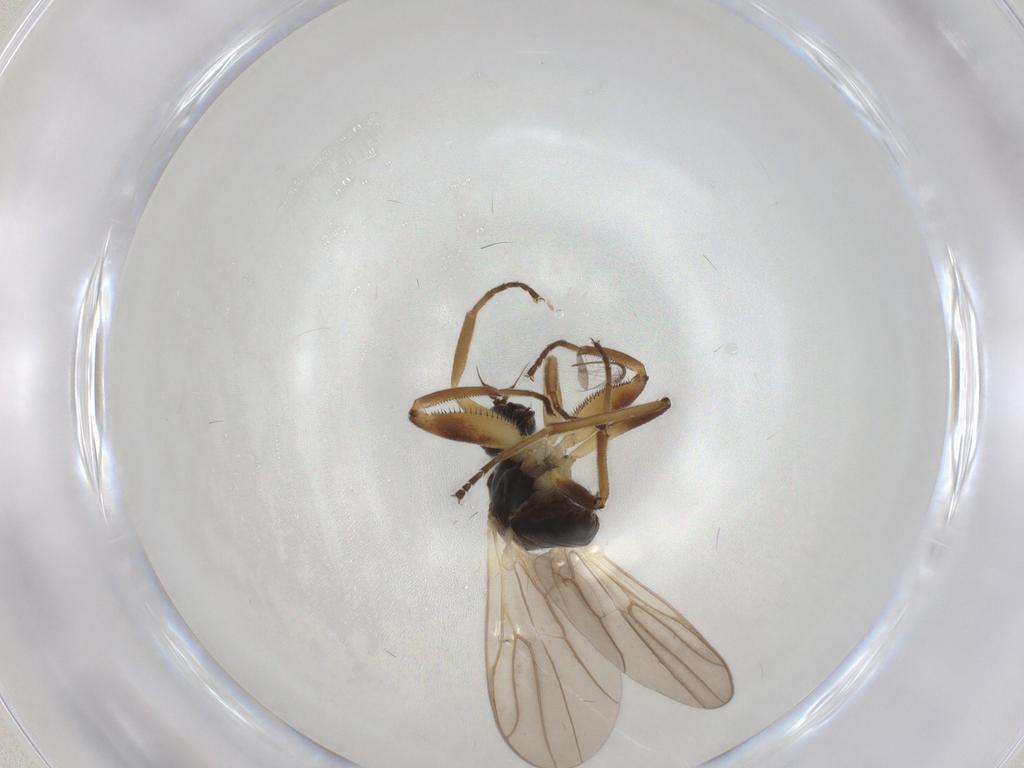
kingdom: Animalia
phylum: Arthropoda
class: Insecta
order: Diptera
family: Hybotidae
